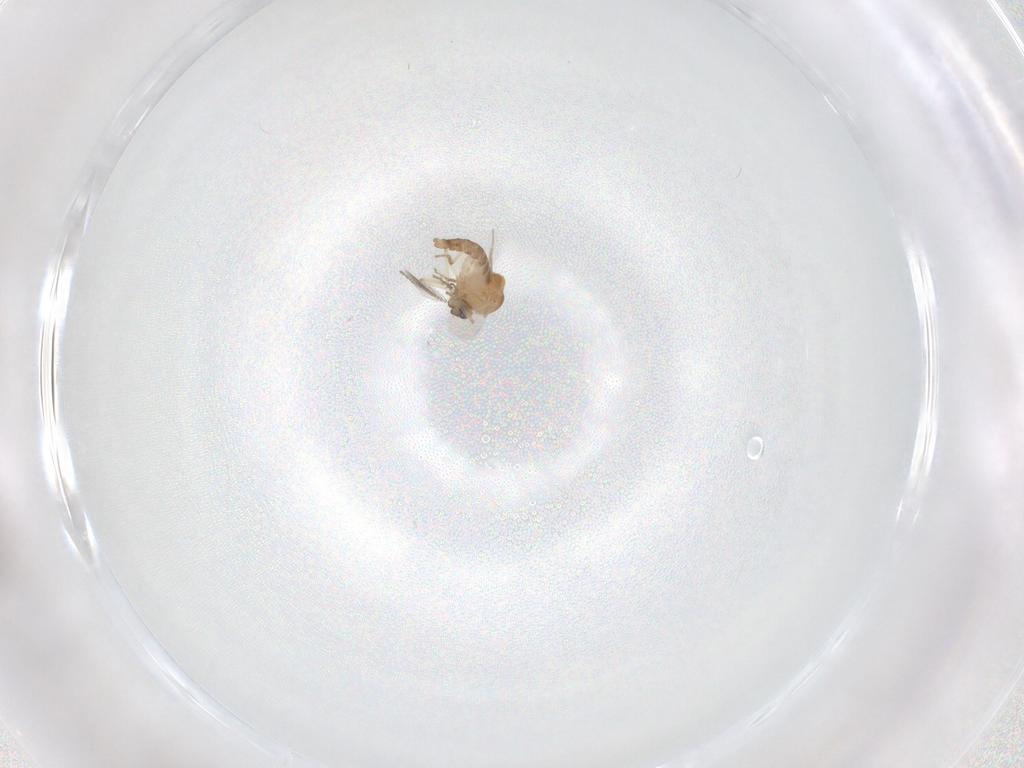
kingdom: Animalia
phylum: Arthropoda
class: Insecta
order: Diptera
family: Ceratopogonidae
